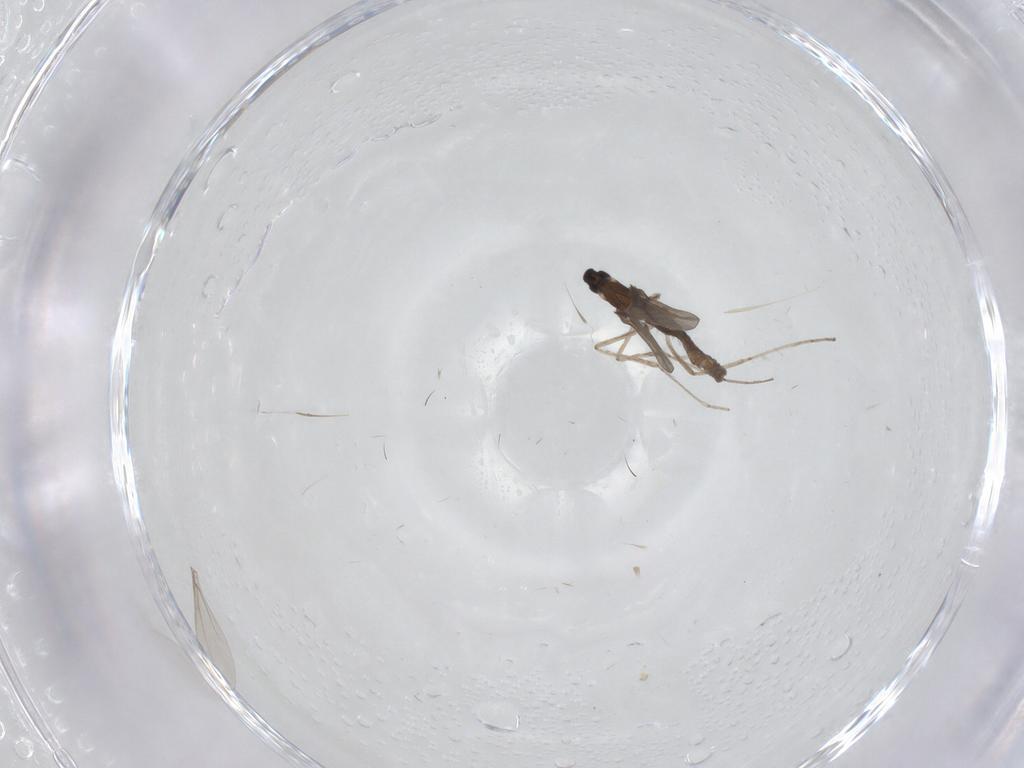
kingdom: Animalia
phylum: Arthropoda
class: Insecta
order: Diptera
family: Cecidomyiidae
